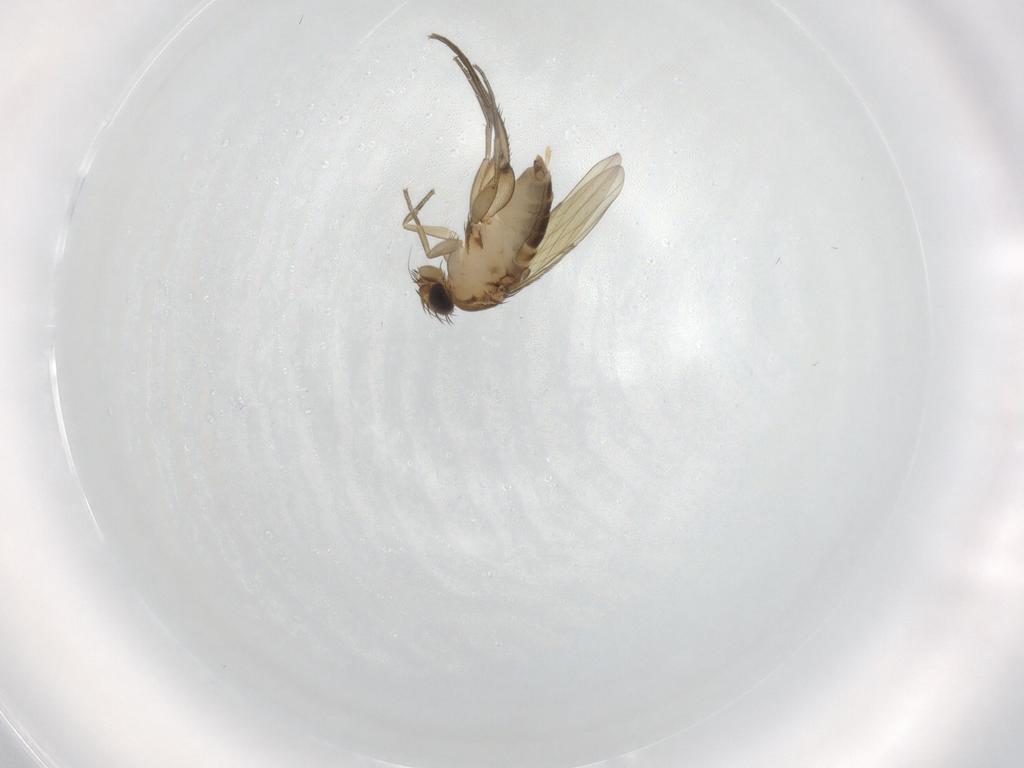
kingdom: Animalia
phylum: Arthropoda
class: Insecta
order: Diptera
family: Phoridae
